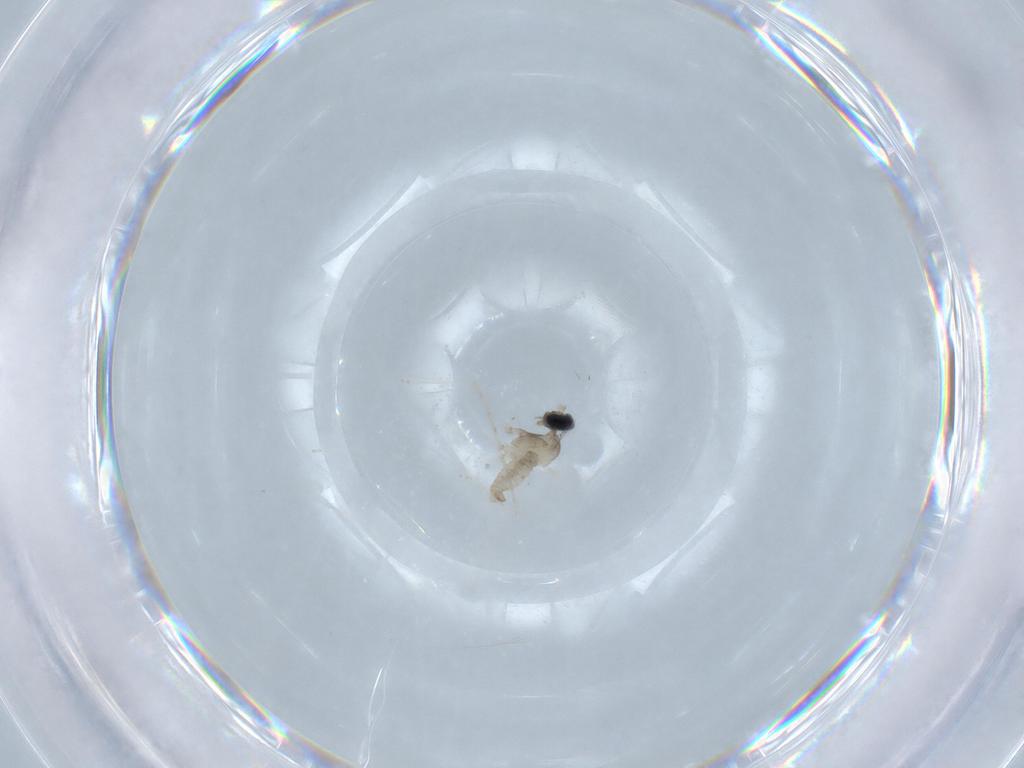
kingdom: Animalia
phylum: Arthropoda
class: Insecta
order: Diptera
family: Cecidomyiidae
